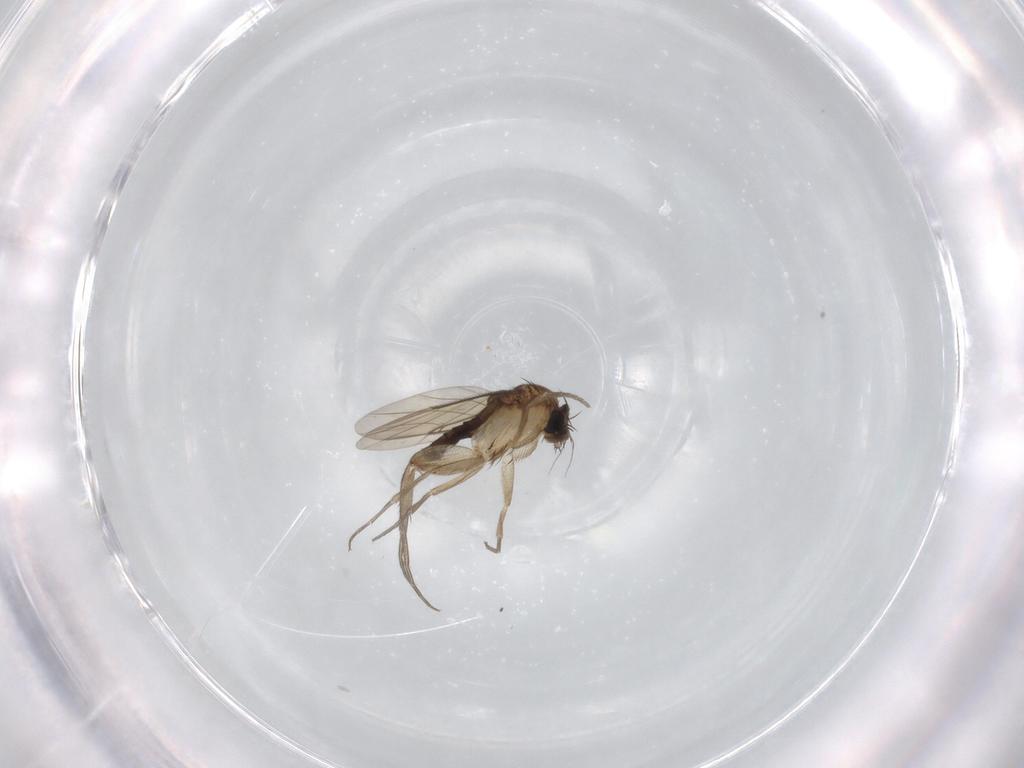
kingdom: Animalia
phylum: Arthropoda
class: Insecta
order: Diptera
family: Phoridae
